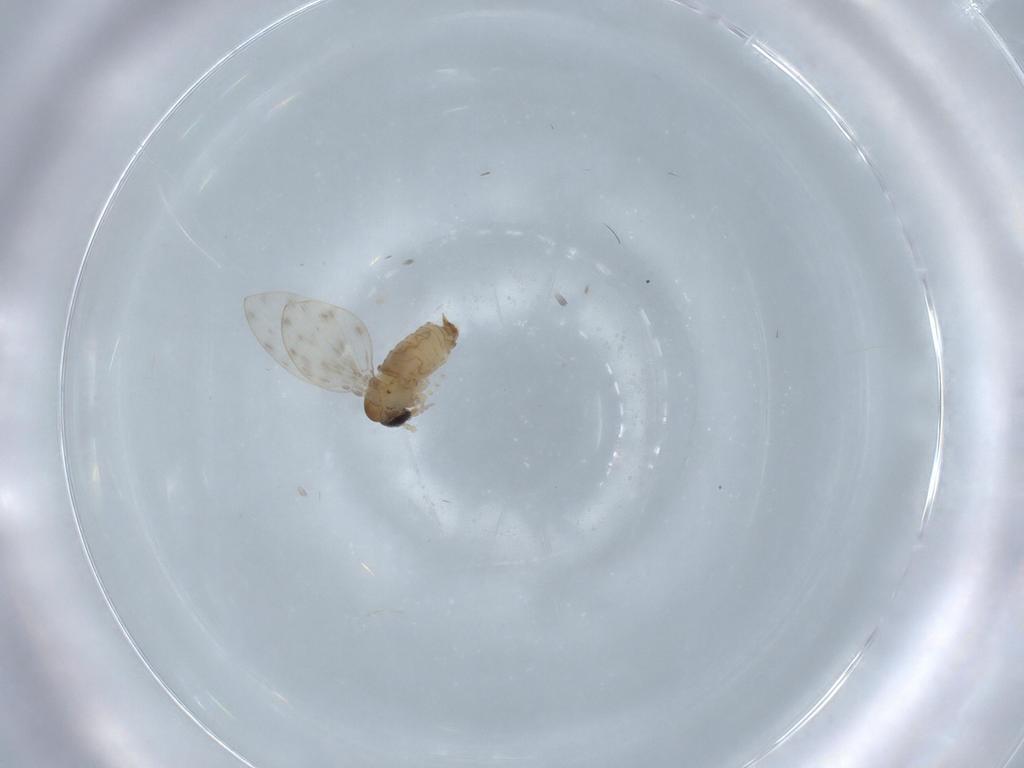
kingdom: Animalia
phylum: Arthropoda
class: Insecta
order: Diptera
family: Psychodidae
